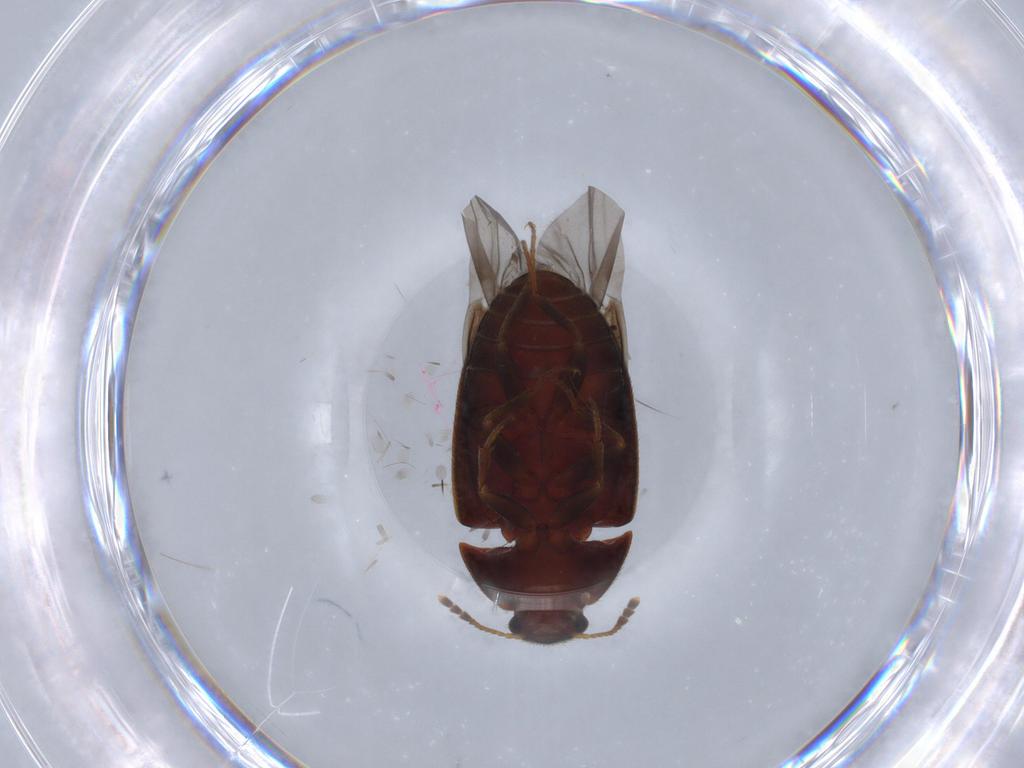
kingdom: Animalia
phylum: Arthropoda
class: Insecta
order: Coleoptera
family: Mycetophagidae
